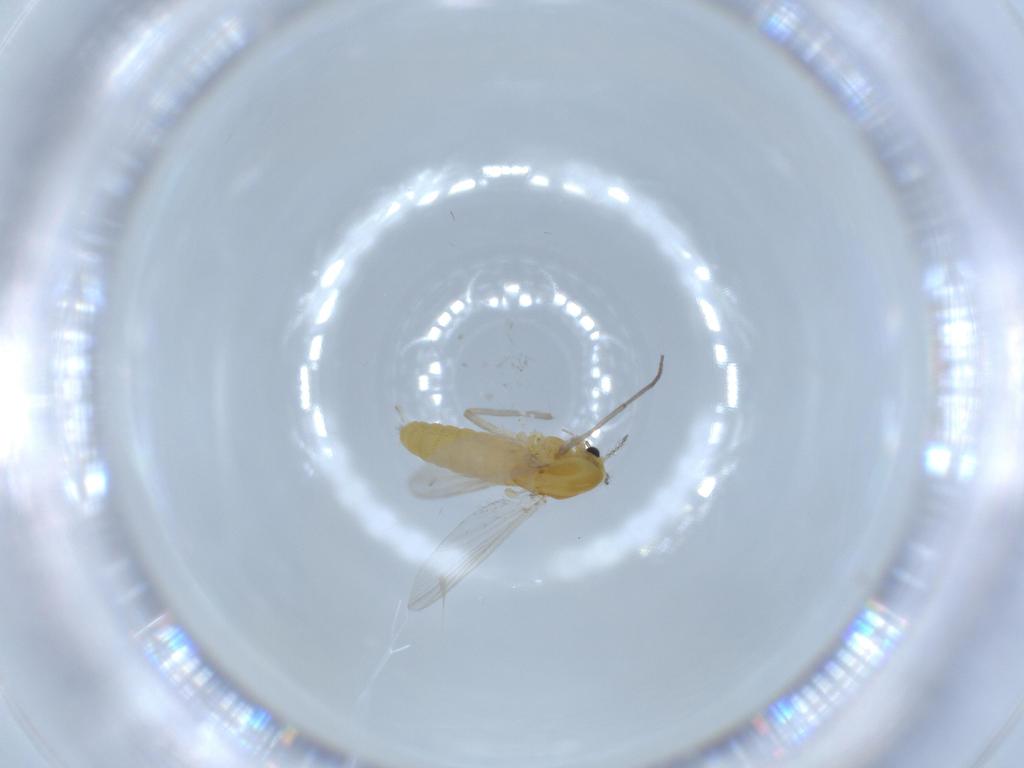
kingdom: Animalia
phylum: Arthropoda
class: Insecta
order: Diptera
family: Chironomidae
